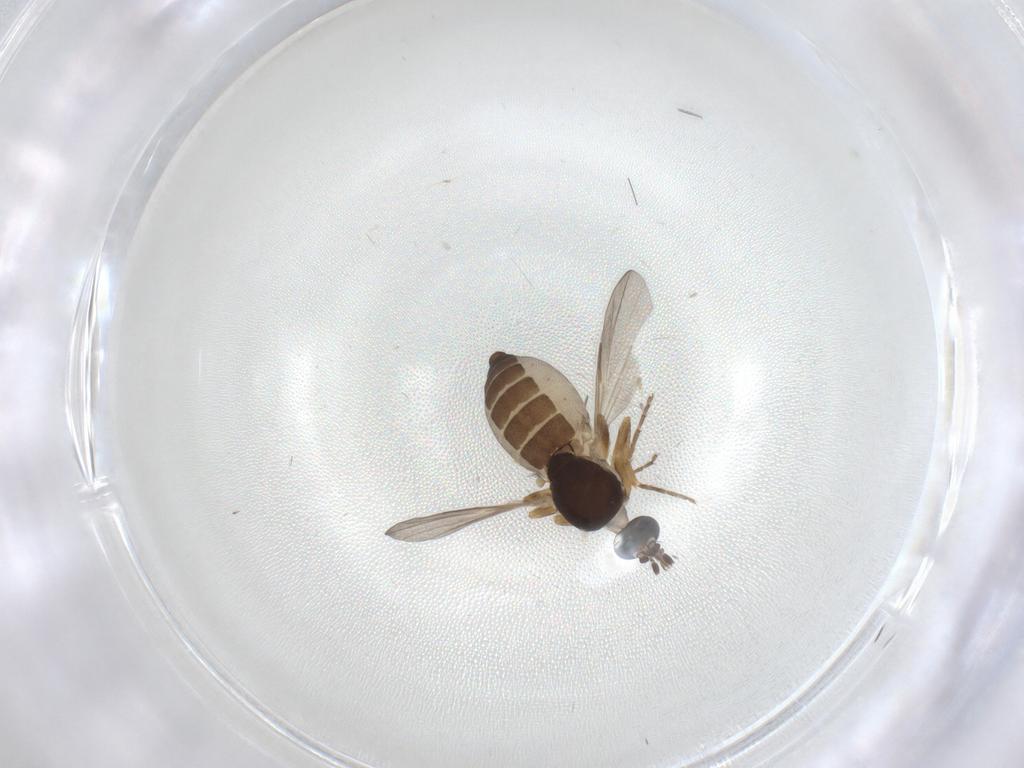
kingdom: Animalia
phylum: Arthropoda
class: Insecta
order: Diptera
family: Ceratopogonidae
